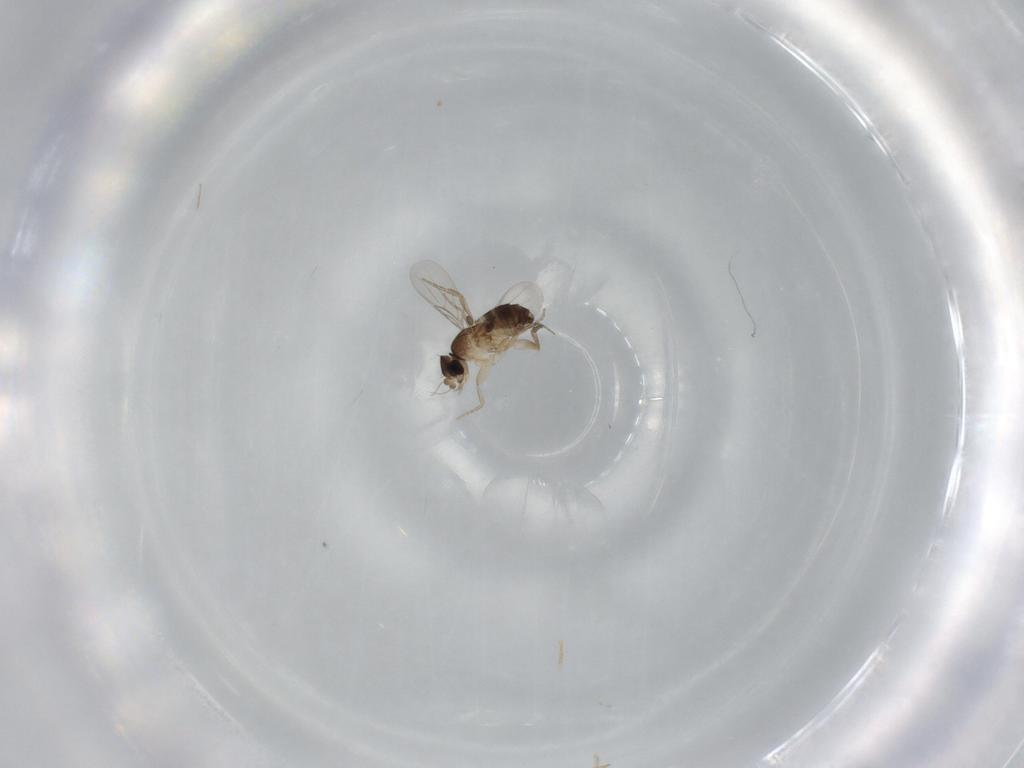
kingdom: Animalia
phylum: Arthropoda
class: Insecta
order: Diptera
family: Phoridae
